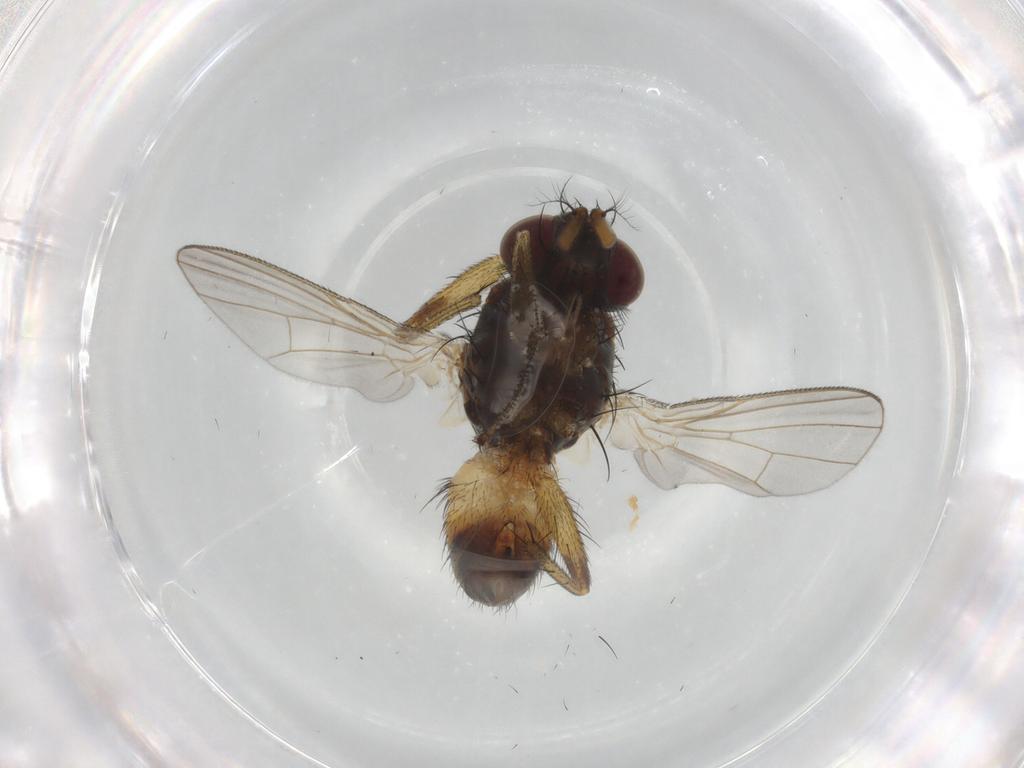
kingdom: Animalia
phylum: Arthropoda
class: Insecta
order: Diptera
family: Muscidae
